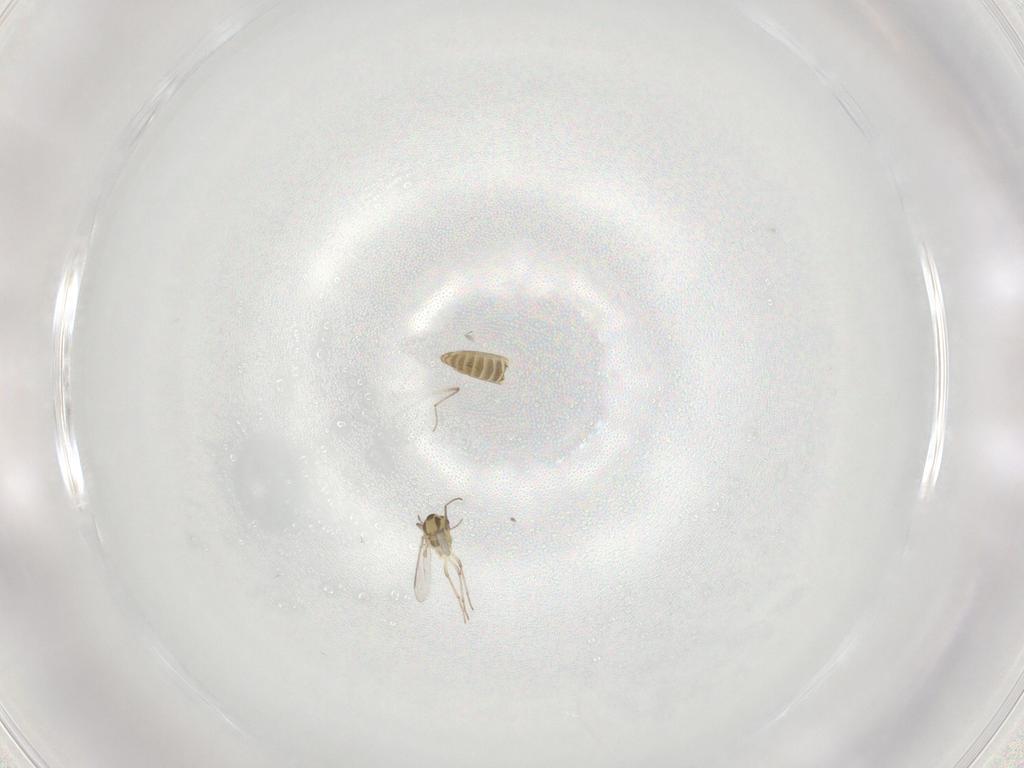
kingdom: Animalia
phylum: Arthropoda
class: Insecta
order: Diptera
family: Chironomidae
